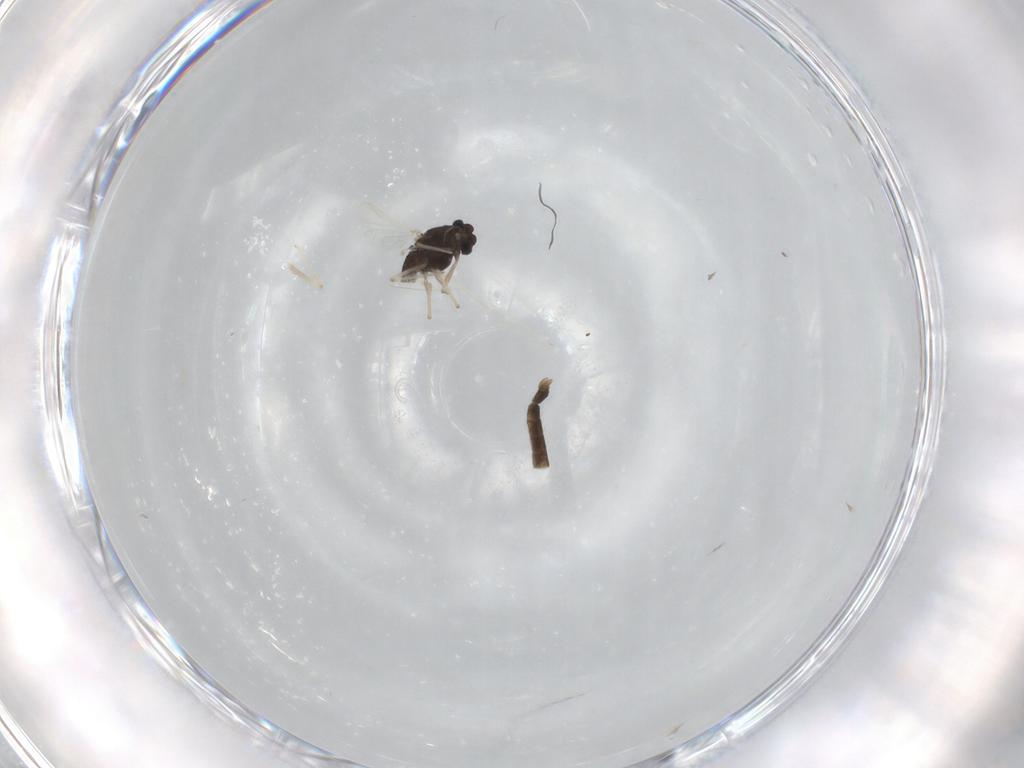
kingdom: Animalia
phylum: Arthropoda
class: Insecta
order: Diptera
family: Chironomidae
